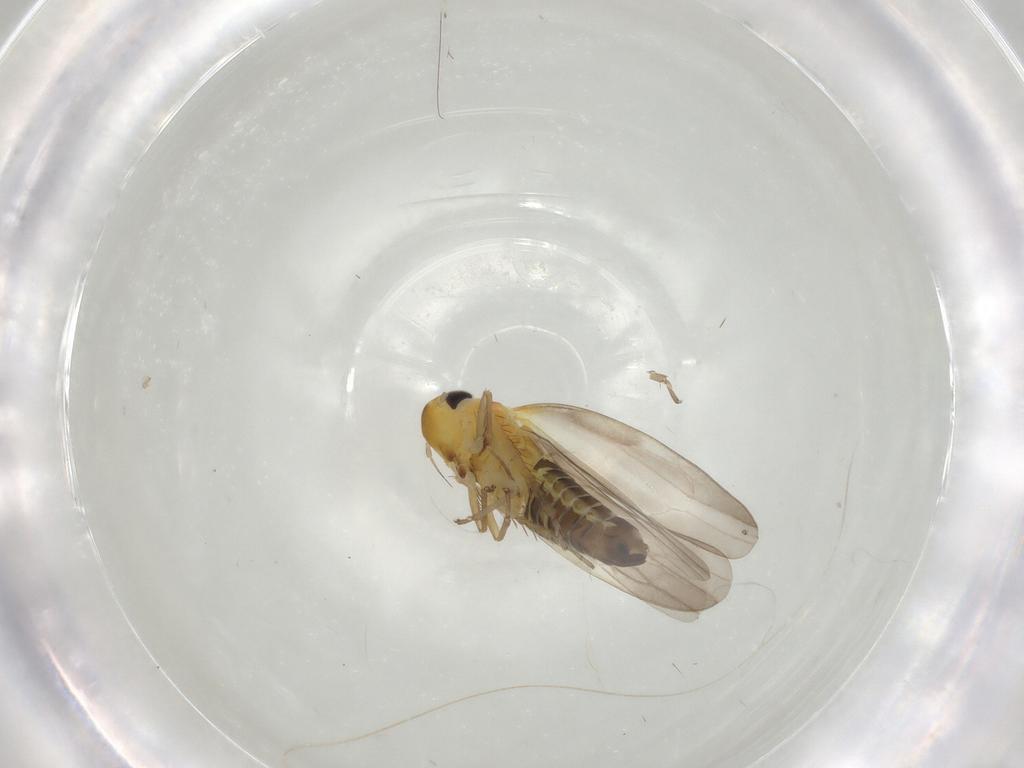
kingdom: Animalia
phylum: Arthropoda
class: Insecta
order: Hemiptera
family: Cicadellidae
